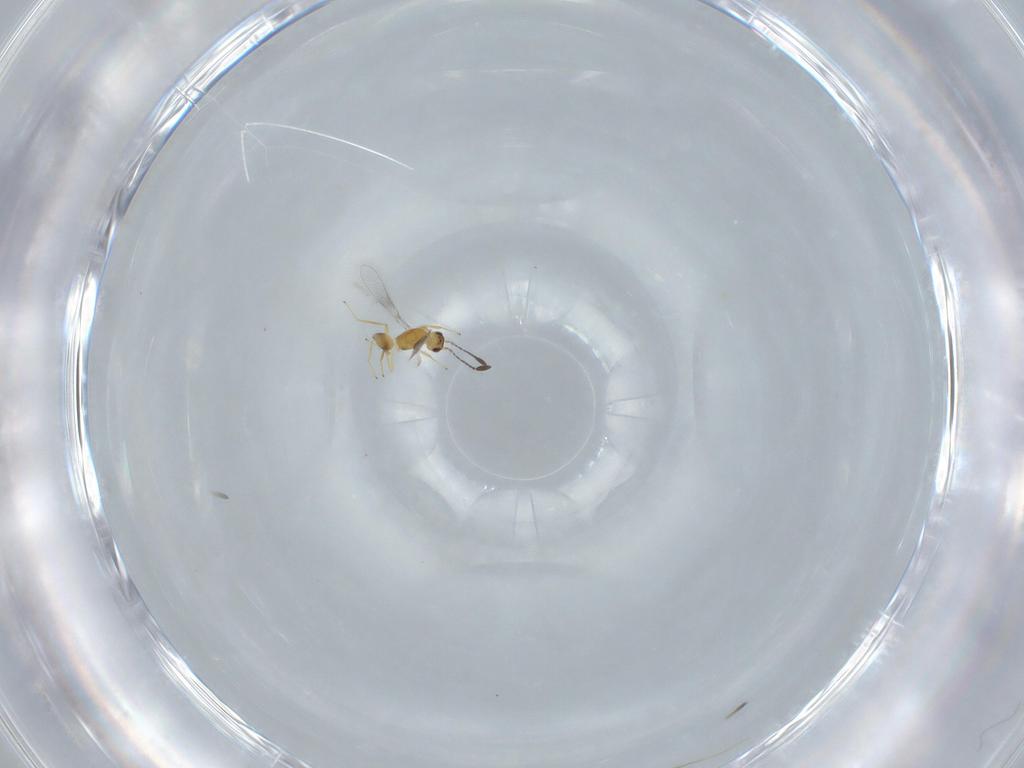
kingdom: Animalia
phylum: Arthropoda
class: Insecta
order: Hymenoptera
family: Mymaridae
